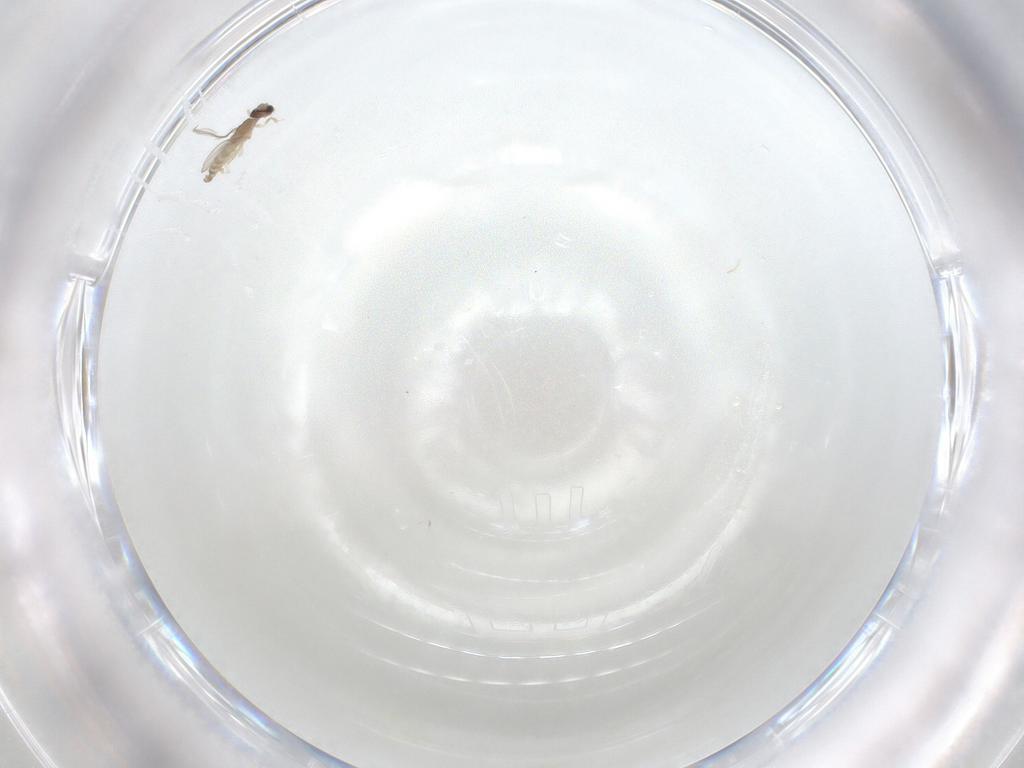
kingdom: Animalia
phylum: Arthropoda
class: Insecta
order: Diptera
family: Cecidomyiidae
